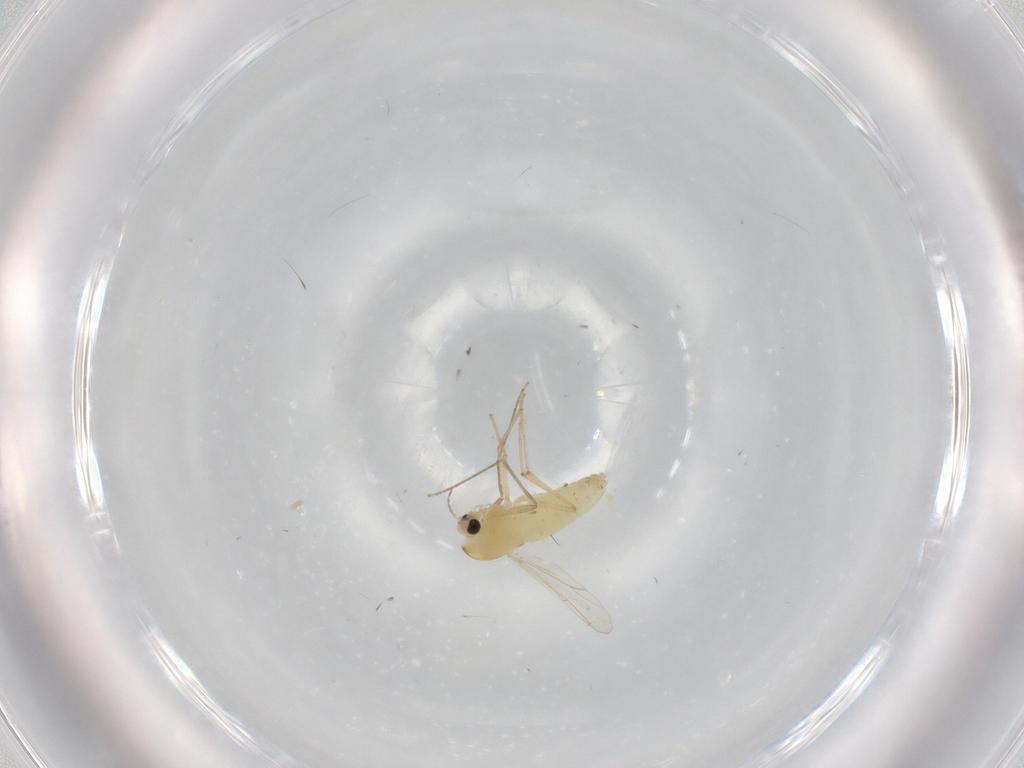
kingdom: Animalia
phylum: Arthropoda
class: Insecta
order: Diptera
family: Chironomidae
